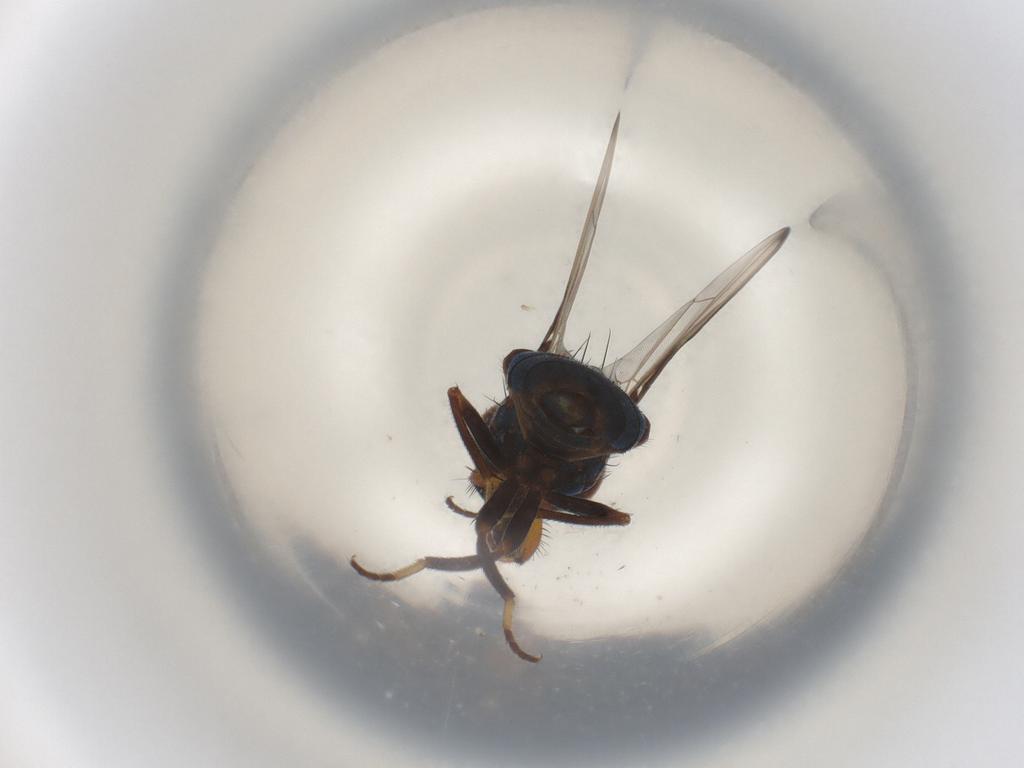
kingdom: Animalia
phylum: Arthropoda
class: Insecta
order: Diptera
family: Ulidiidae
